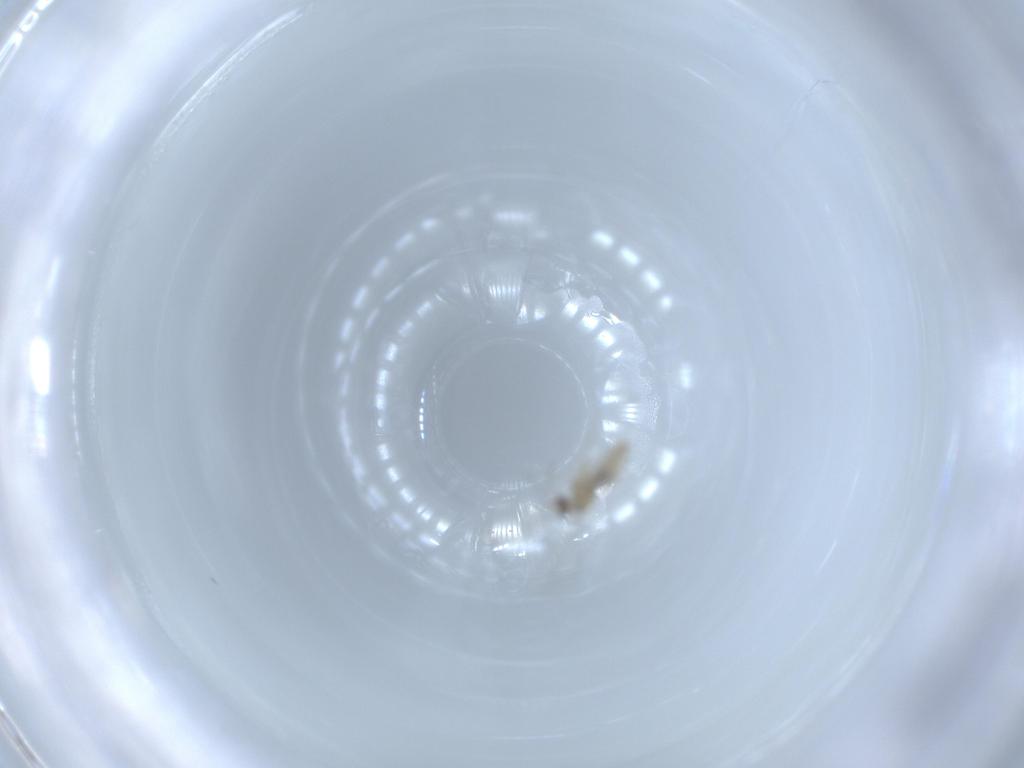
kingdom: Animalia
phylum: Arthropoda
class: Insecta
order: Diptera
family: Cecidomyiidae
